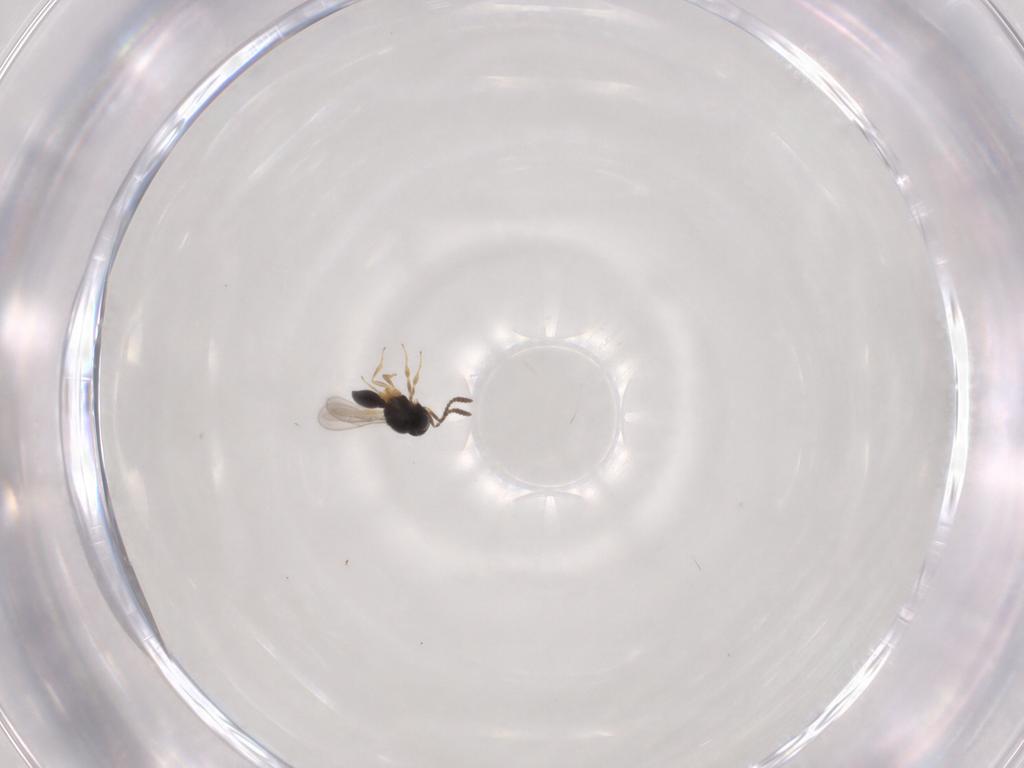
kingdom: Animalia
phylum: Arthropoda
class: Insecta
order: Hymenoptera
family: Scelionidae
